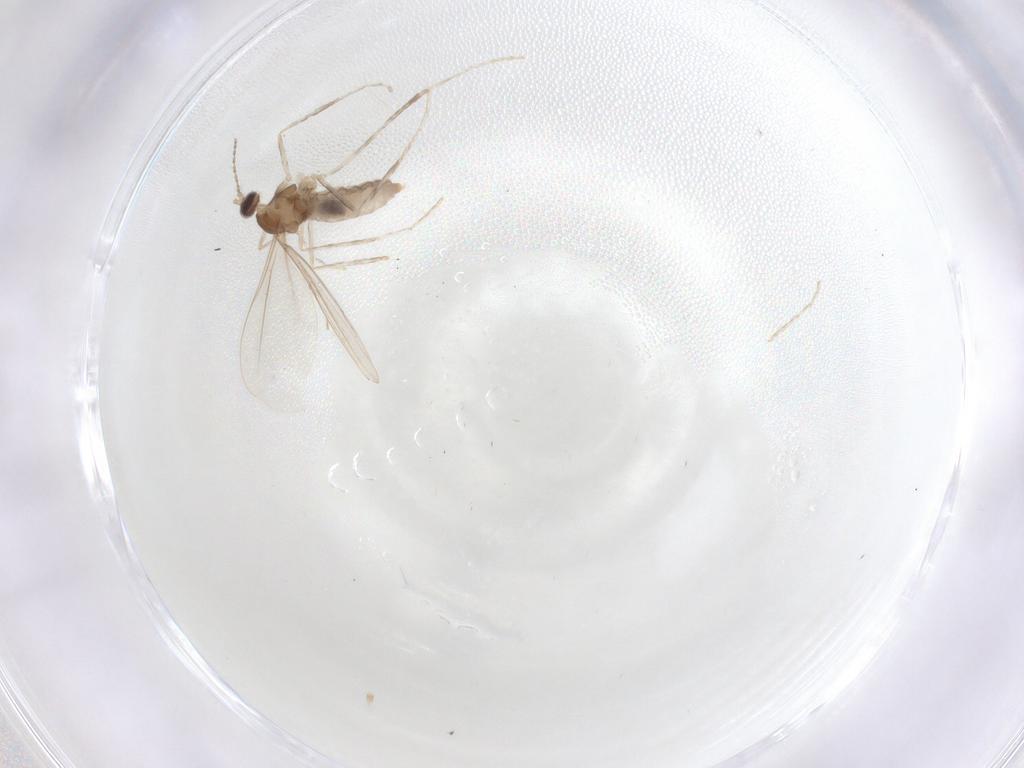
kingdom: Animalia
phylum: Arthropoda
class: Insecta
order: Diptera
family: Cecidomyiidae
